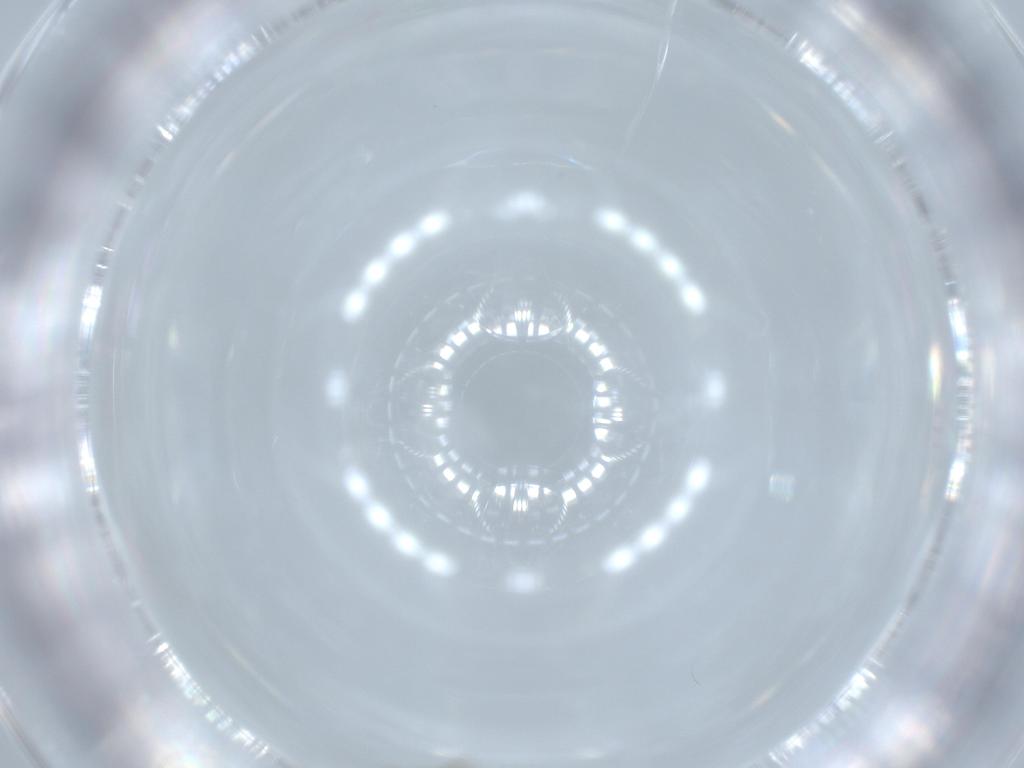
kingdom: Animalia
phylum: Arthropoda
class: Insecta
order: Diptera
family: Ceratopogonidae
